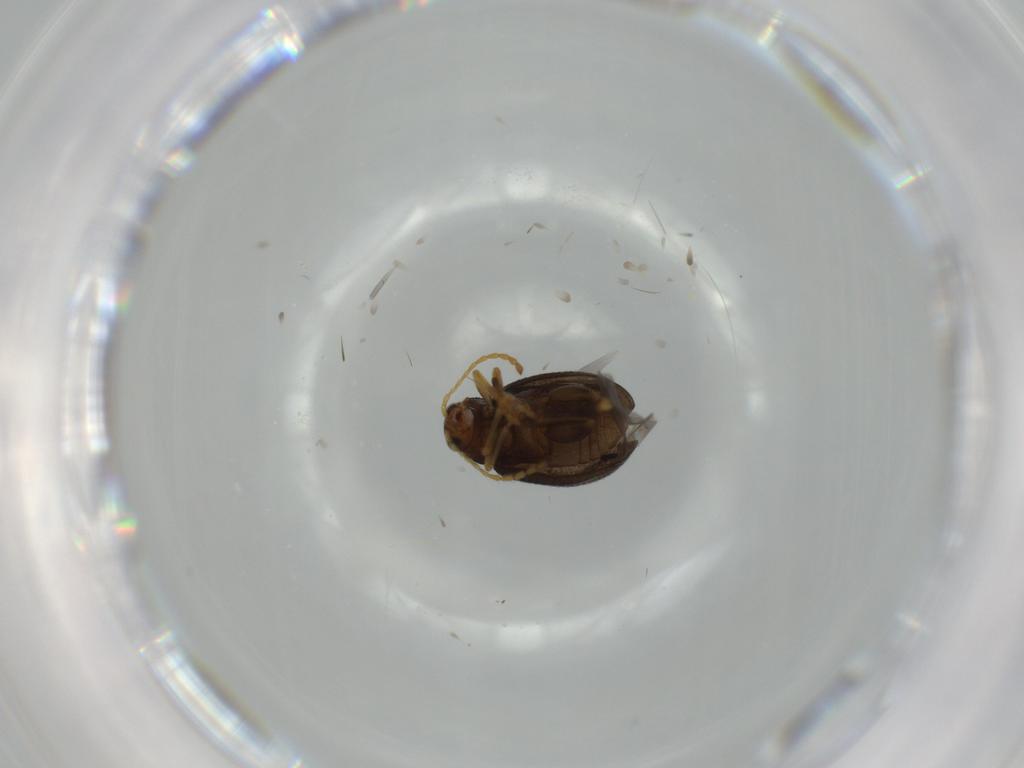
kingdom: Animalia
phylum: Arthropoda
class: Insecta
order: Coleoptera
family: Chrysomelidae
